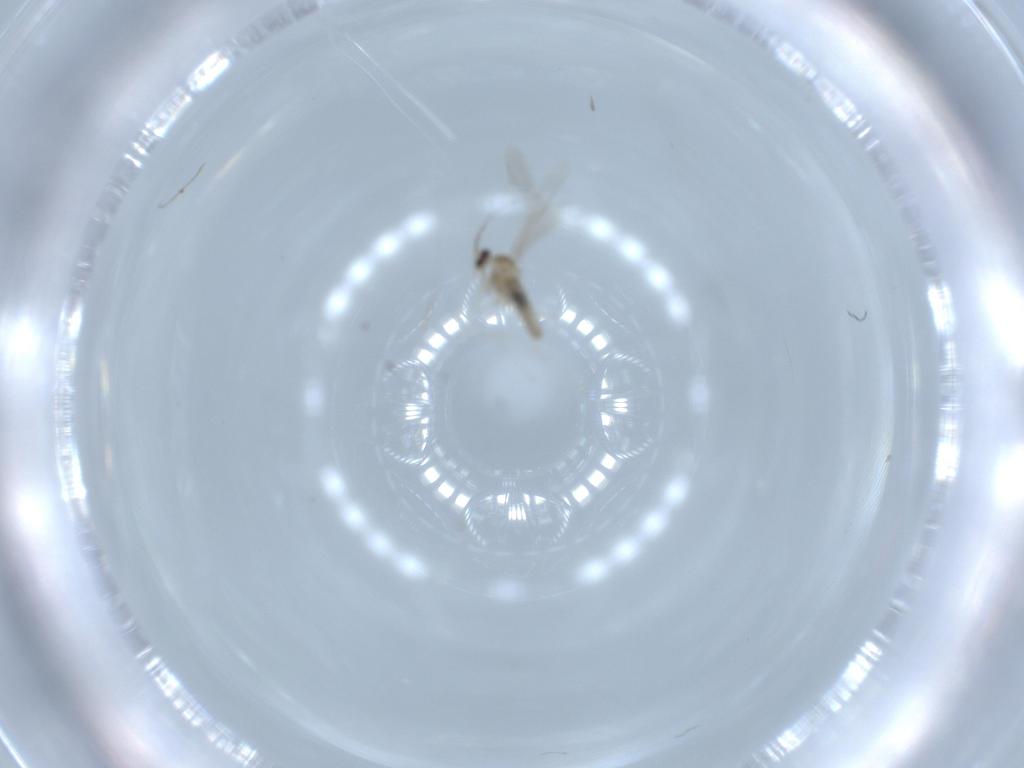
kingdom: Animalia
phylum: Arthropoda
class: Insecta
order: Diptera
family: Cecidomyiidae
